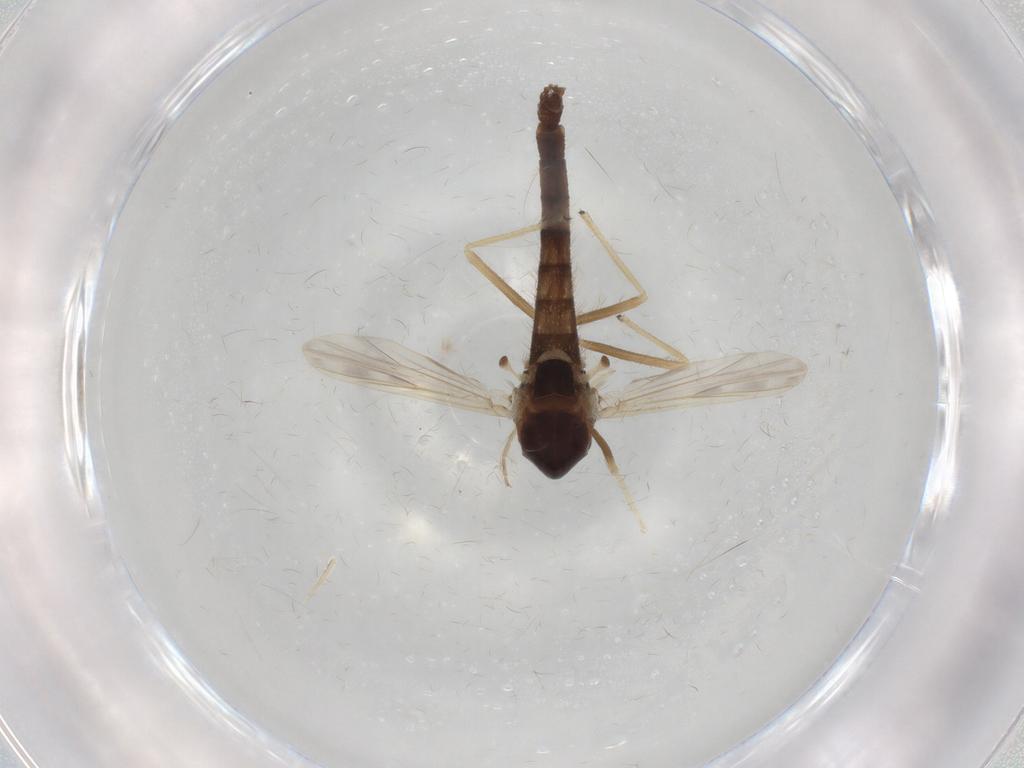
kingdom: Animalia
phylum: Arthropoda
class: Insecta
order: Diptera
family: Chironomidae
